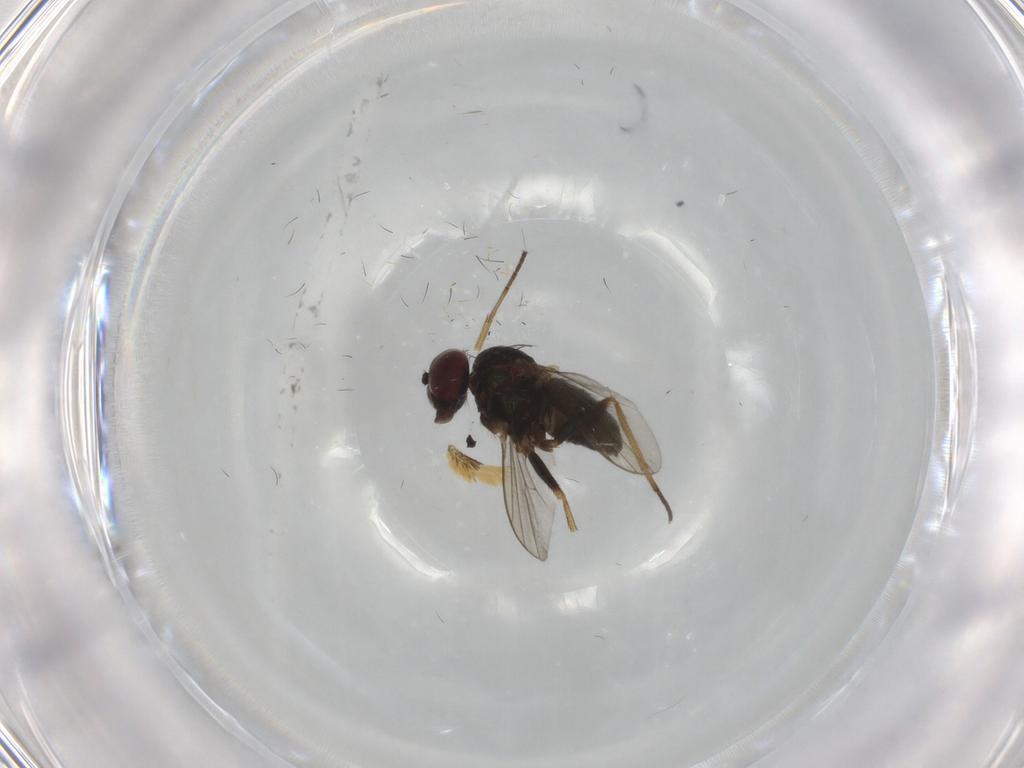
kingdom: Animalia
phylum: Arthropoda
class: Insecta
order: Diptera
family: Dolichopodidae
